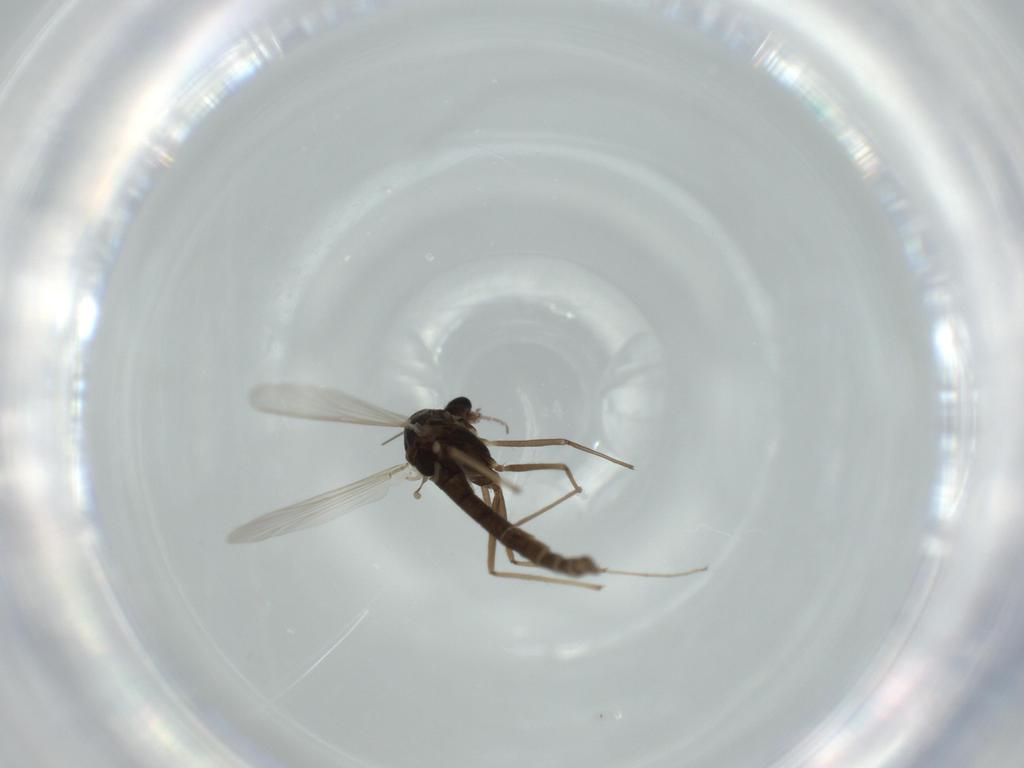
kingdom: Animalia
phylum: Arthropoda
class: Insecta
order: Diptera
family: Chironomidae
